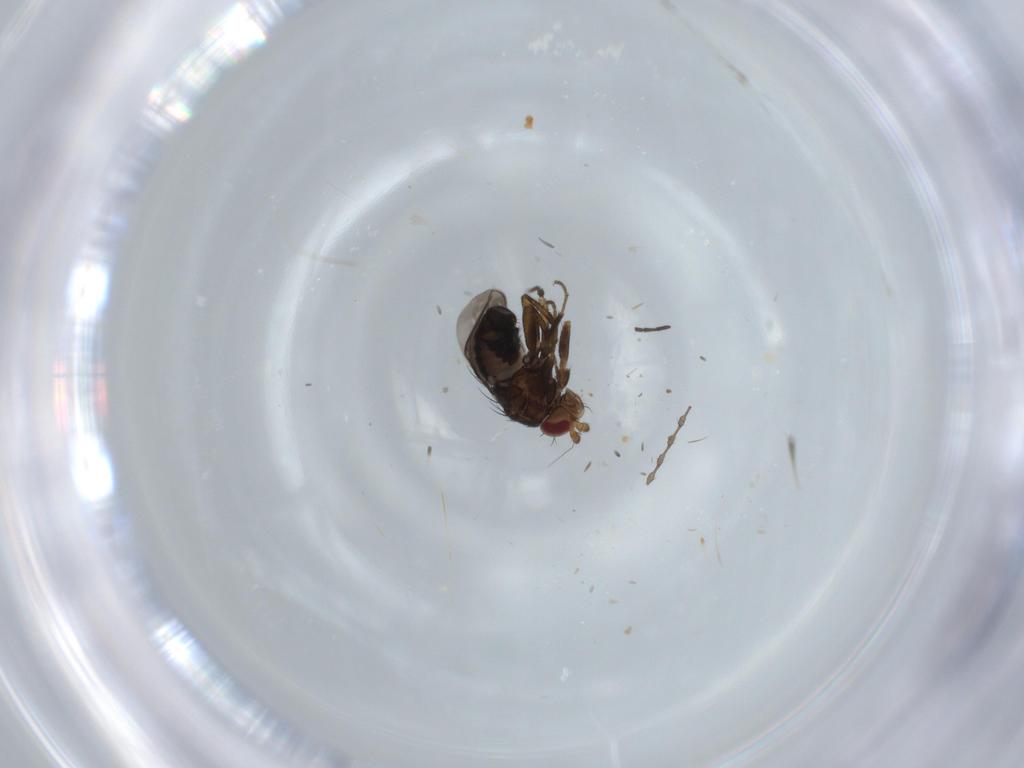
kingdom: Animalia
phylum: Arthropoda
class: Insecta
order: Diptera
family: Cecidomyiidae
